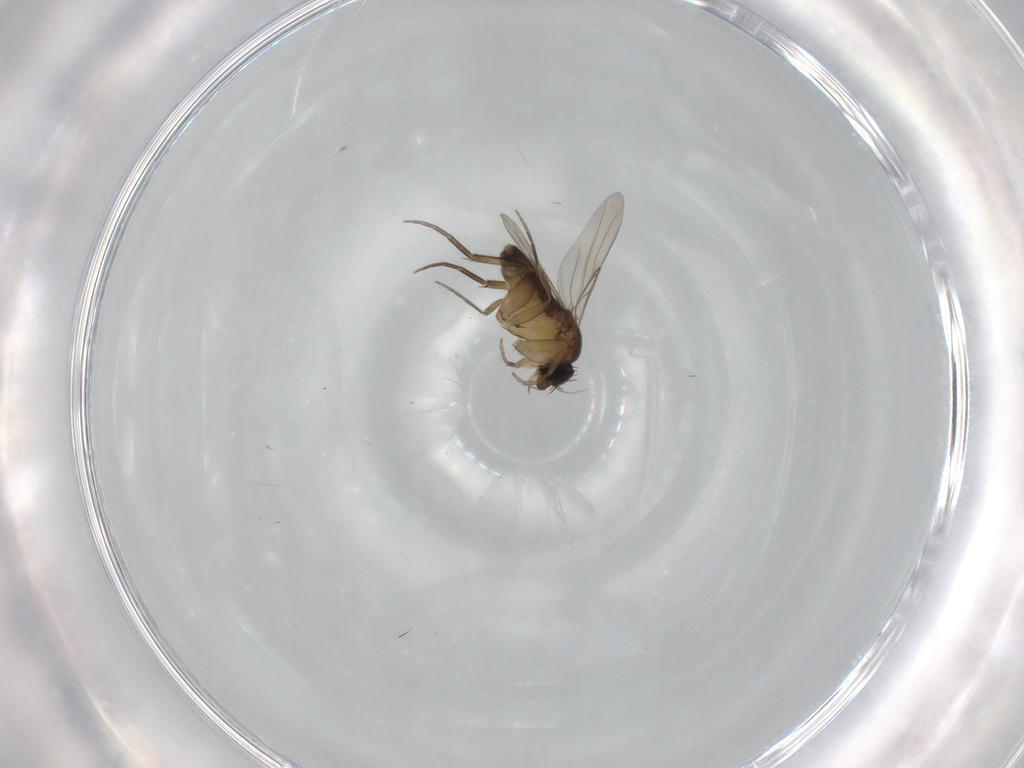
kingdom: Animalia
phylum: Arthropoda
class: Insecta
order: Diptera
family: Phoridae
